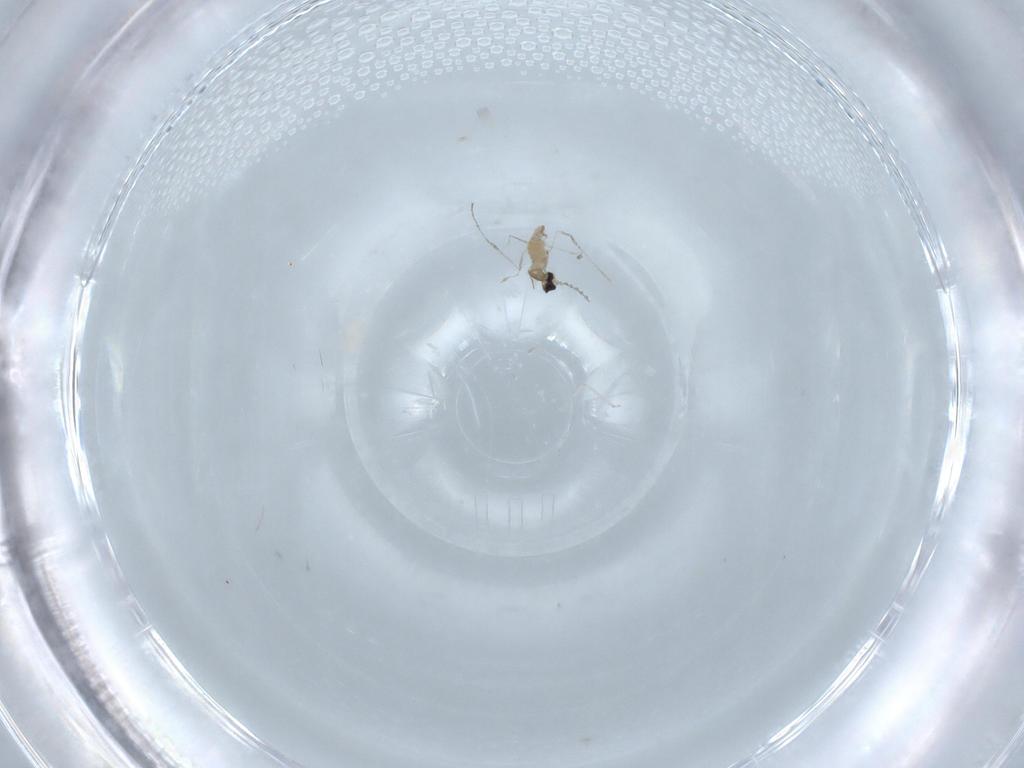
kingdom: Animalia
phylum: Arthropoda
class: Insecta
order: Diptera
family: Cecidomyiidae
